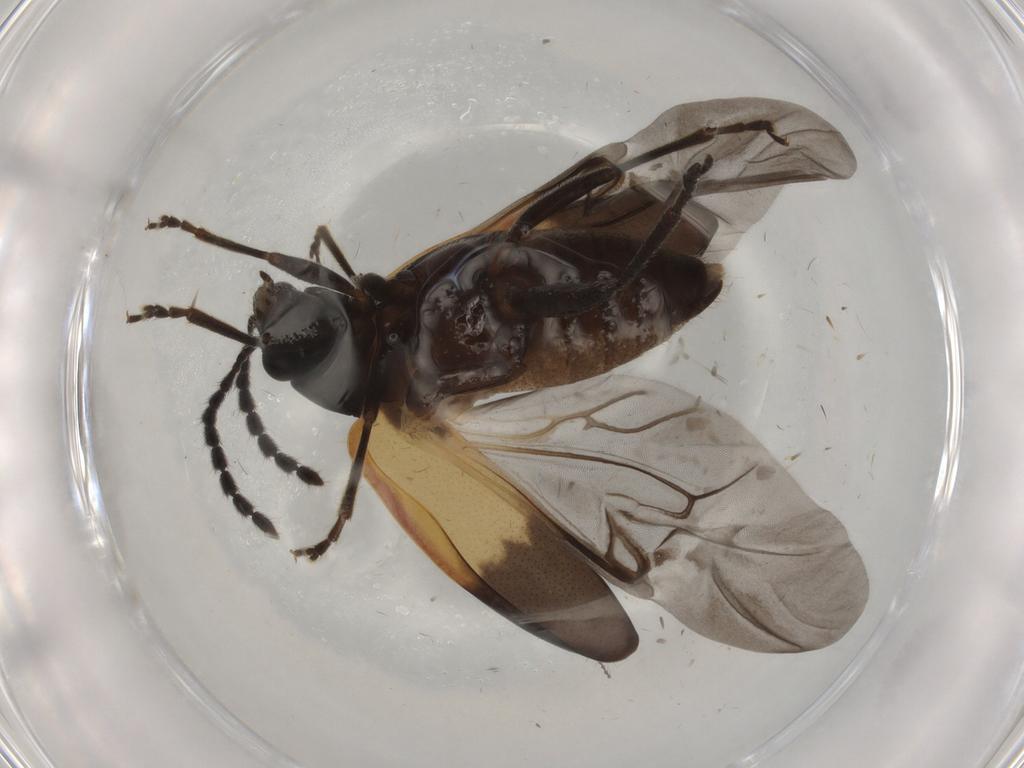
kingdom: Animalia
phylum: Arthropoda
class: Insecta
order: Coleoptera
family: Chrysomelidae
